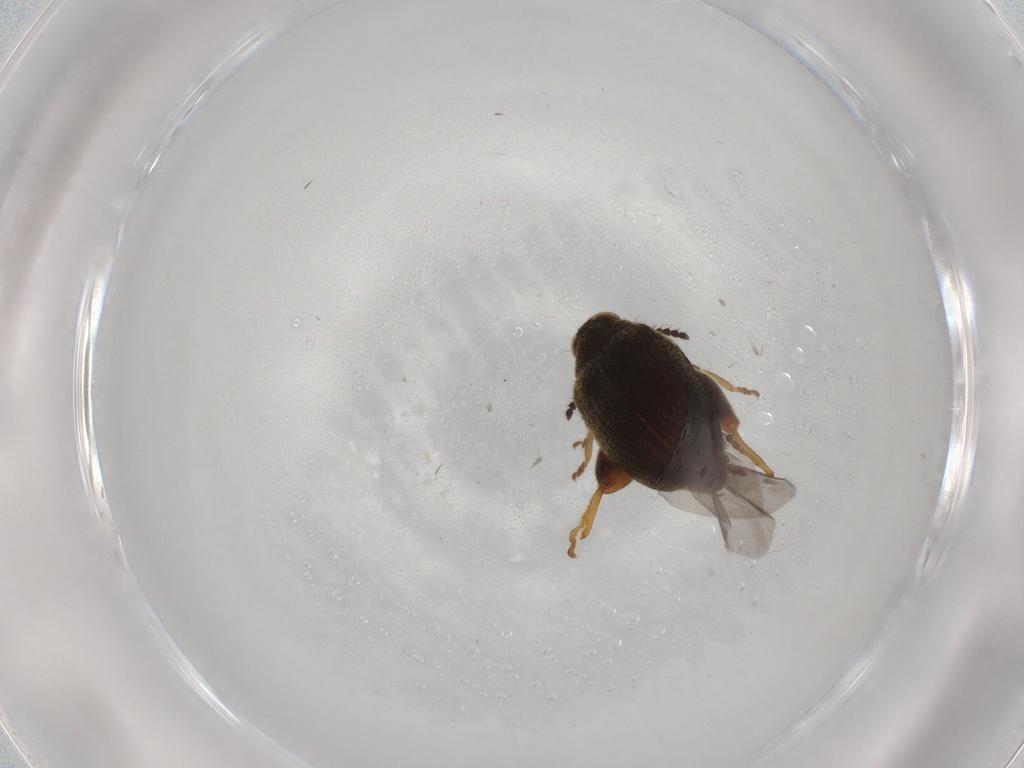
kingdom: Animalia
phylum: Arthropoda
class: Insecta
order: Coleoptera
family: Chrysomelidae
